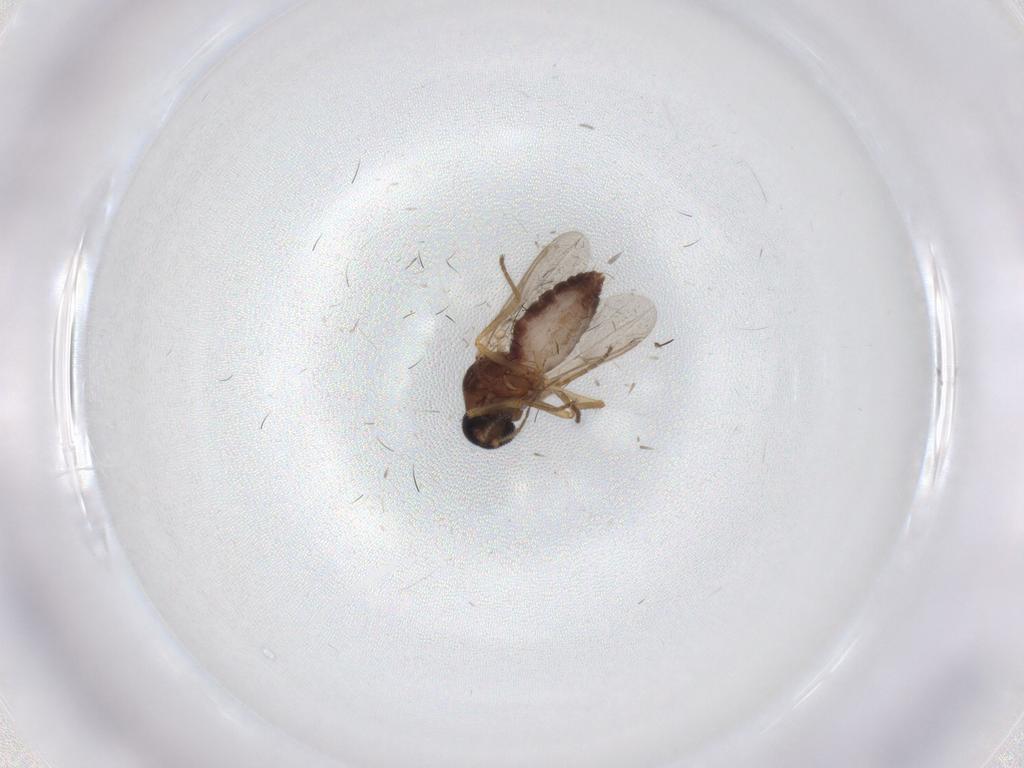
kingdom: Animalia
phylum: Arthropoda
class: Insecta
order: Diptera
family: Ceratopogonidae
